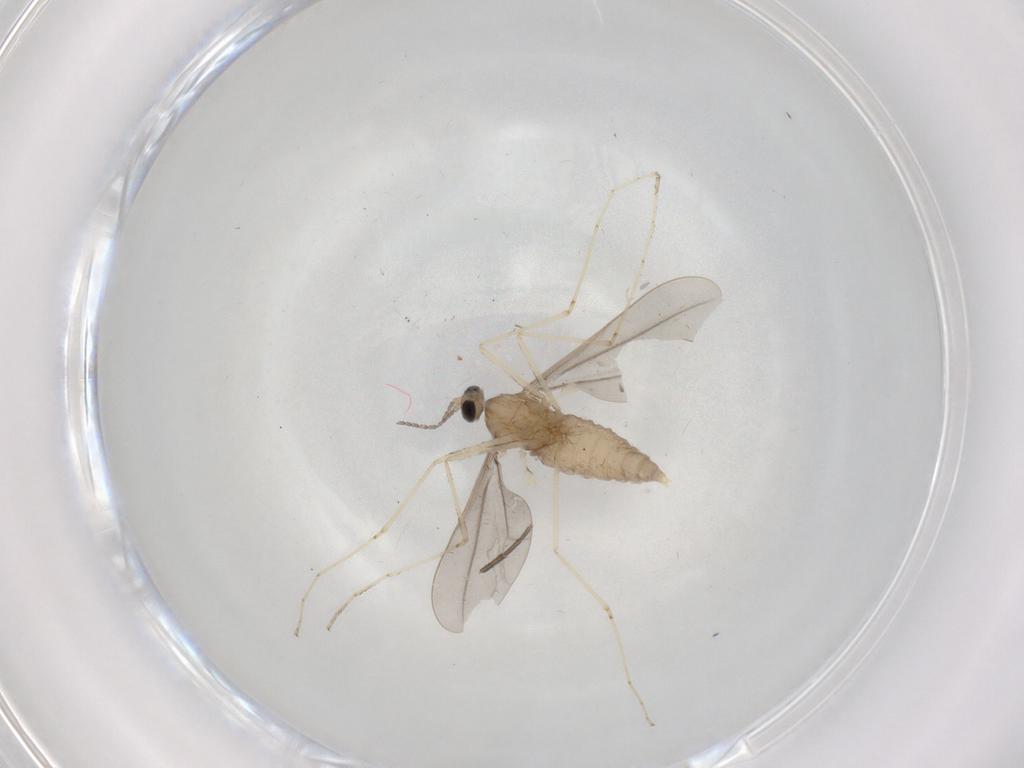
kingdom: Animalia
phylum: Arthropoda
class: Insecta
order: Diptera
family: Cecidomyiidae
